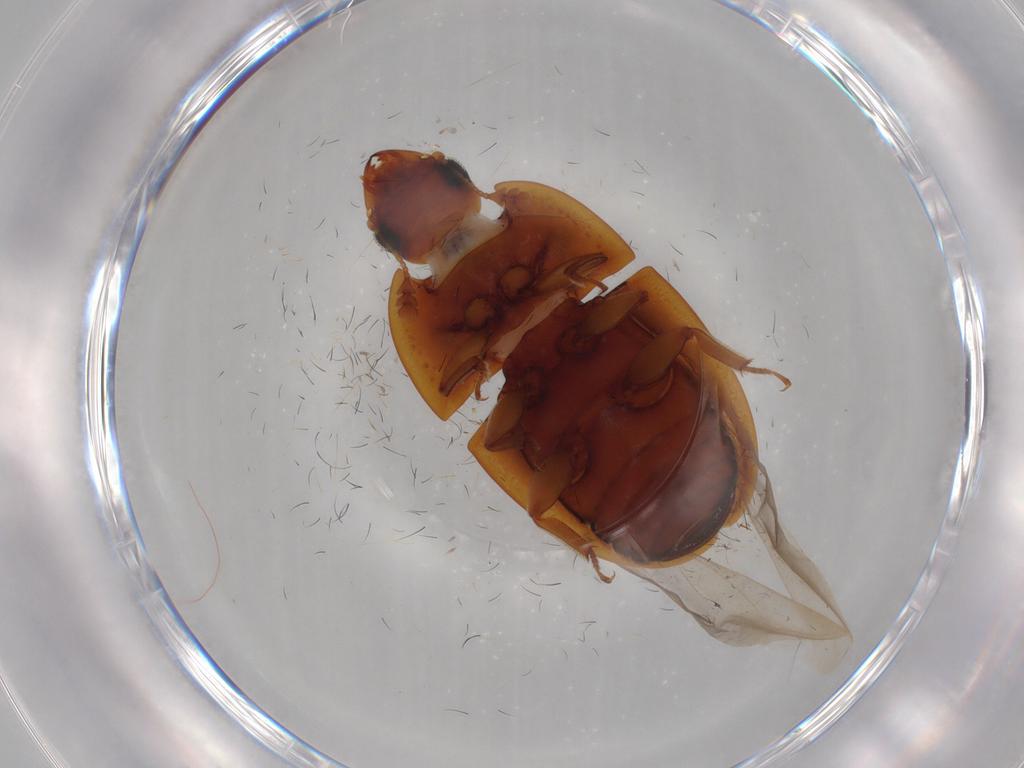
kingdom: Animalia
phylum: Arthropoda
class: Insecta
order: Coleoptera
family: Nitidulidae
